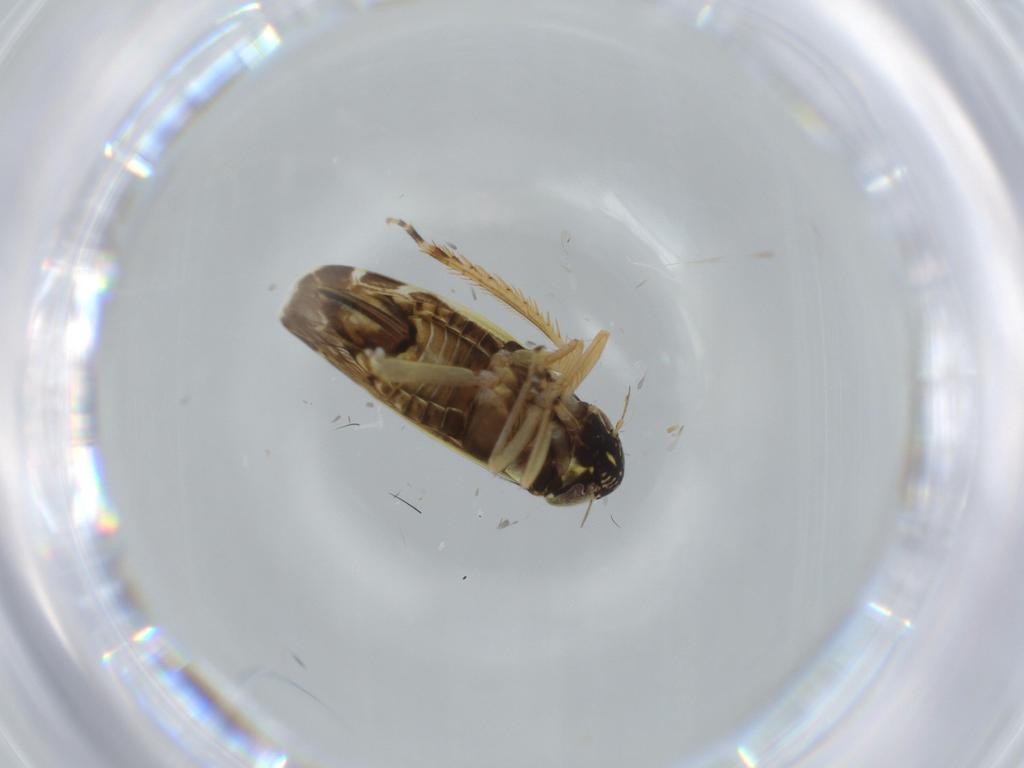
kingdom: Animalia
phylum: Arthropoda
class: Insecta
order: Hemiptera
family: Cicadellidae
